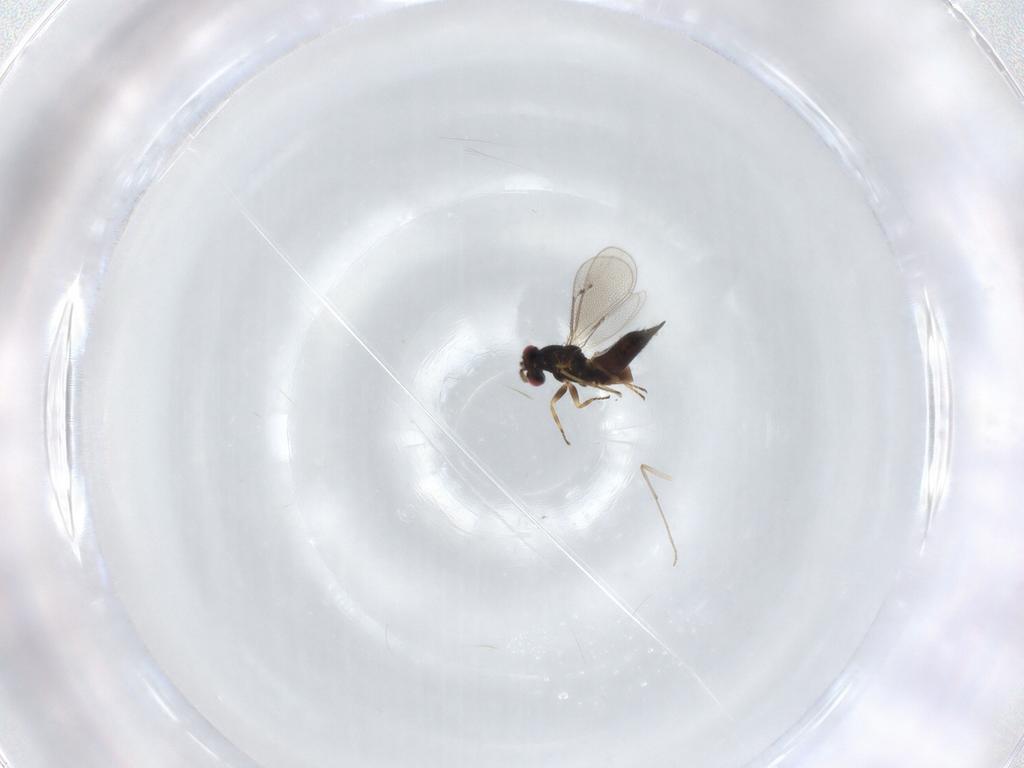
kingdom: Animalia
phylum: Arthropoda
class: Insecta
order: Hymenoptera
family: Eulophidae
